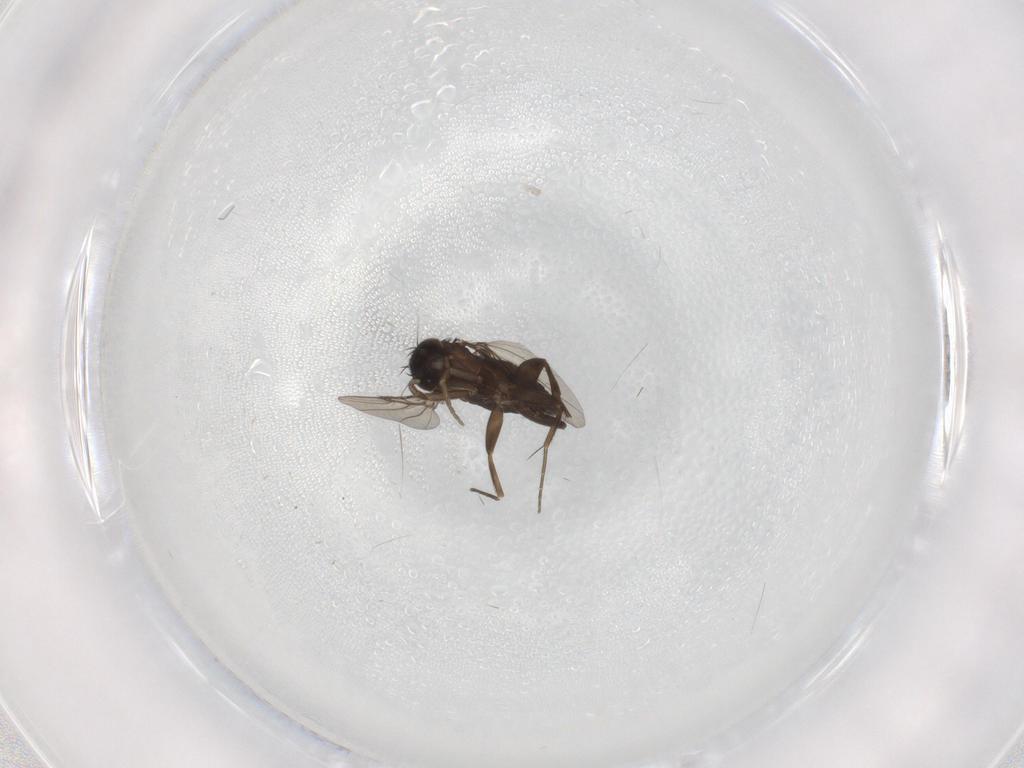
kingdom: Animalia
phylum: Arthropoda
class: Insecta
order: Diptera
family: Phoridae
